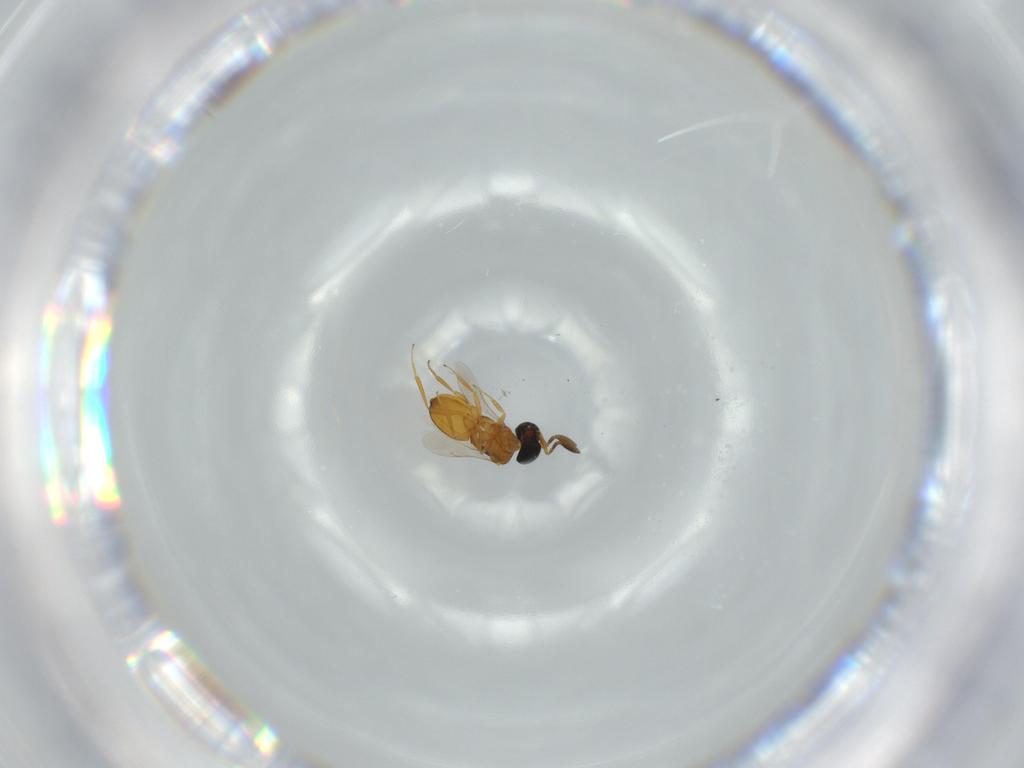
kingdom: Animalia
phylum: Arthropoda
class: Insecta
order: Hymenoptera
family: Scelionidae
